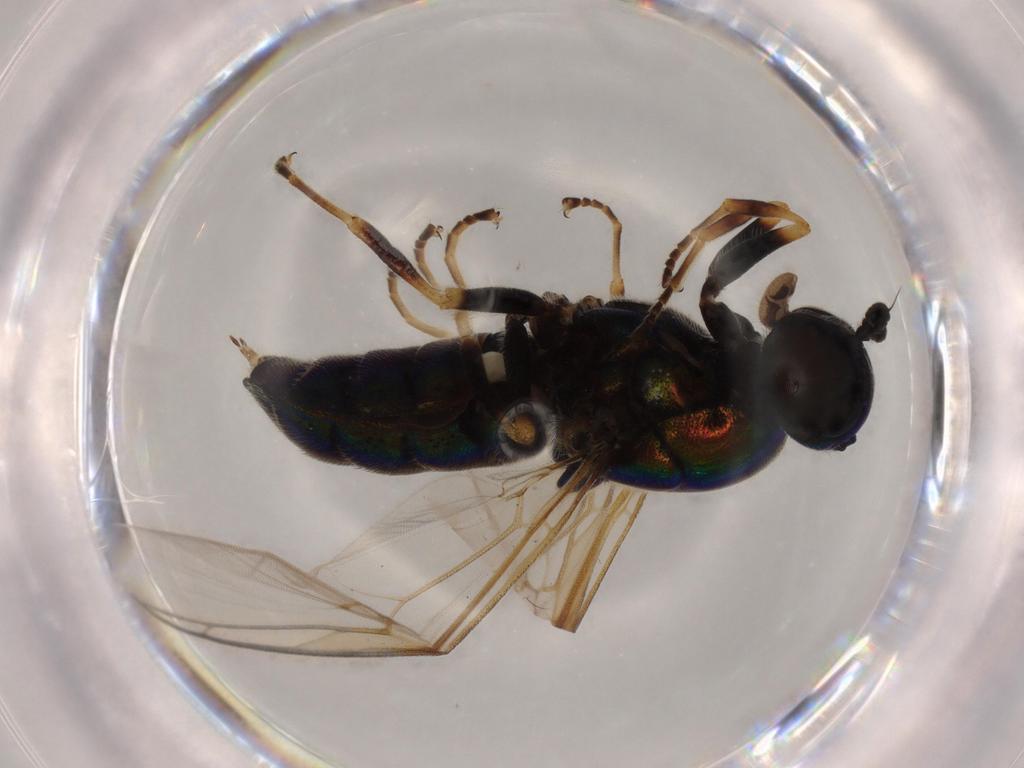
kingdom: Animalia
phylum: Arthropoda
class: Insecta
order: Diptera
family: Sphaeroceridae
